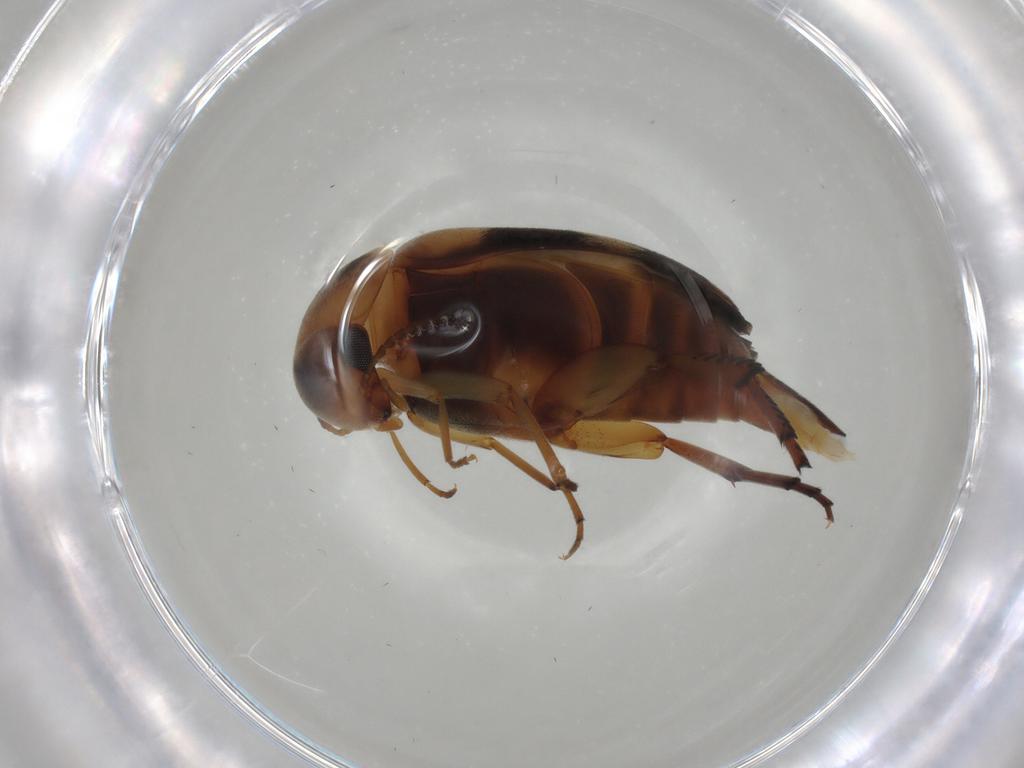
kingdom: Animalia
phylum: Arthropoda
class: Insecta
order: Coleoptera
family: Mordellidae
